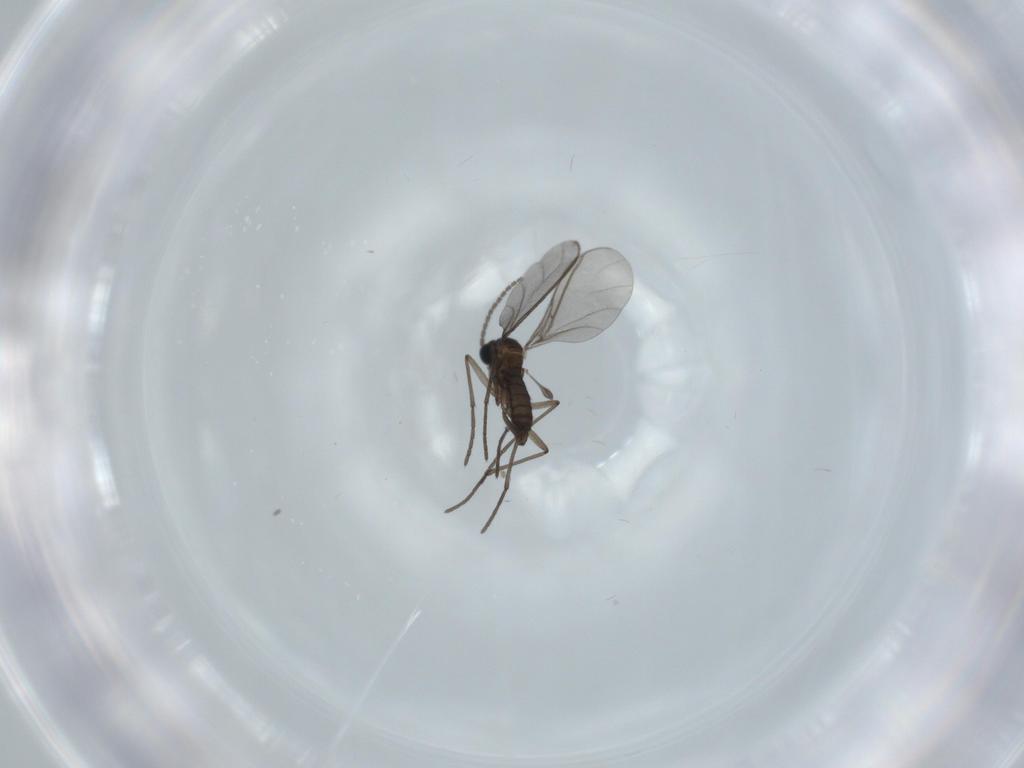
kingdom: Animalia
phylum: Arthropoda
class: Insecta
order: Diptera
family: Sciaridae
